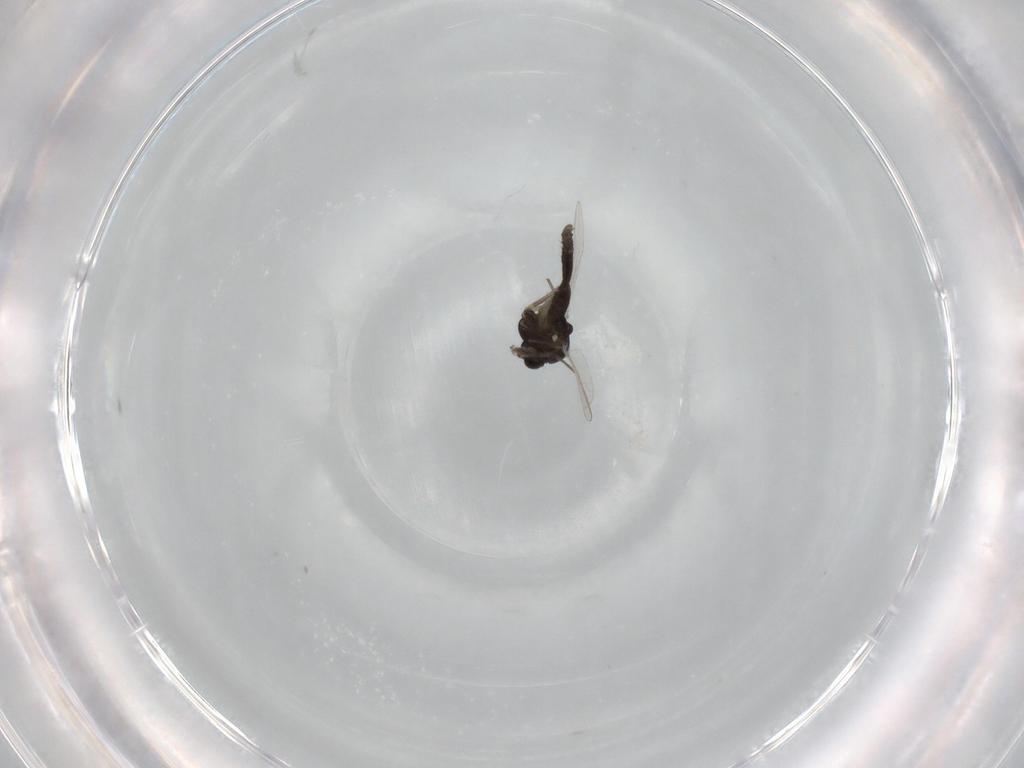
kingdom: Animalia
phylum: Arthropoda
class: Insecta
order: Diptera
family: Chironomidae
